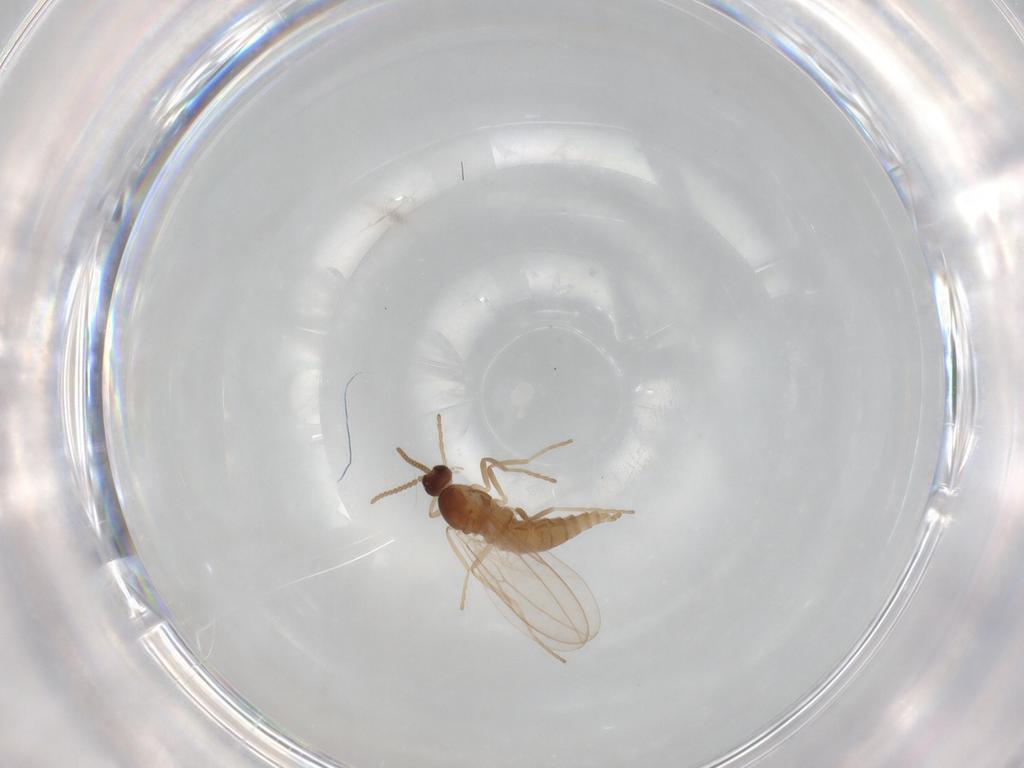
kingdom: Animalia
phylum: Arthropoda
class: Insecta
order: Diptera
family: Psychodidae
